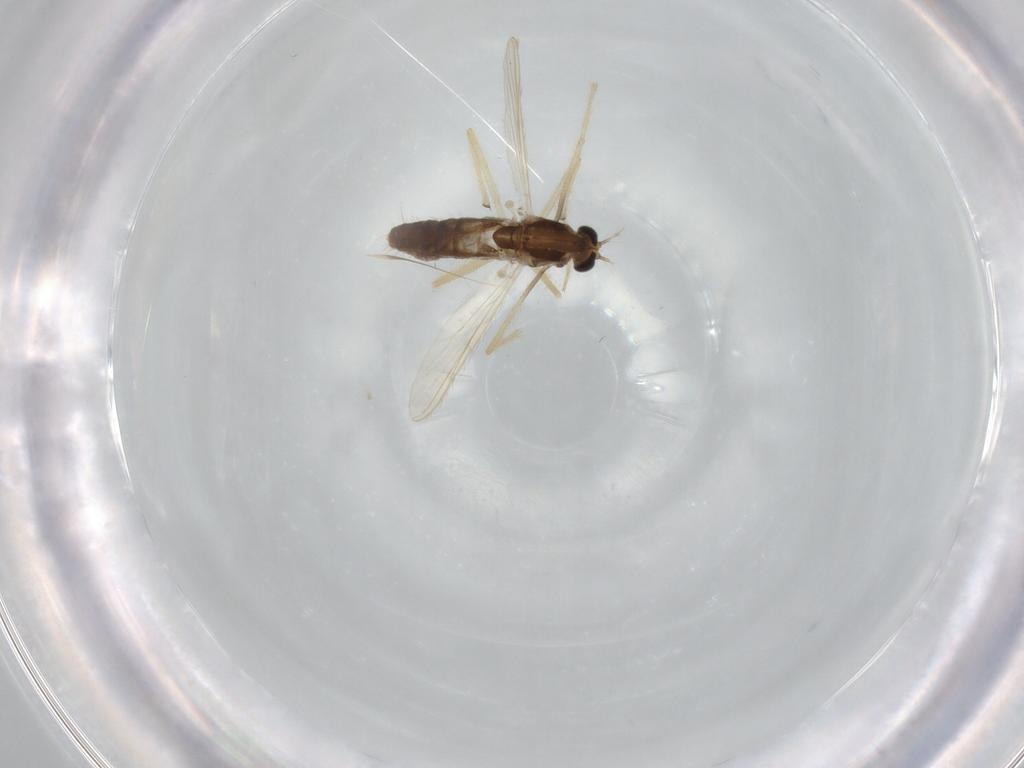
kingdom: Animalia
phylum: Arthropoda
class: Insecta
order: Diptera
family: Chironomidae
